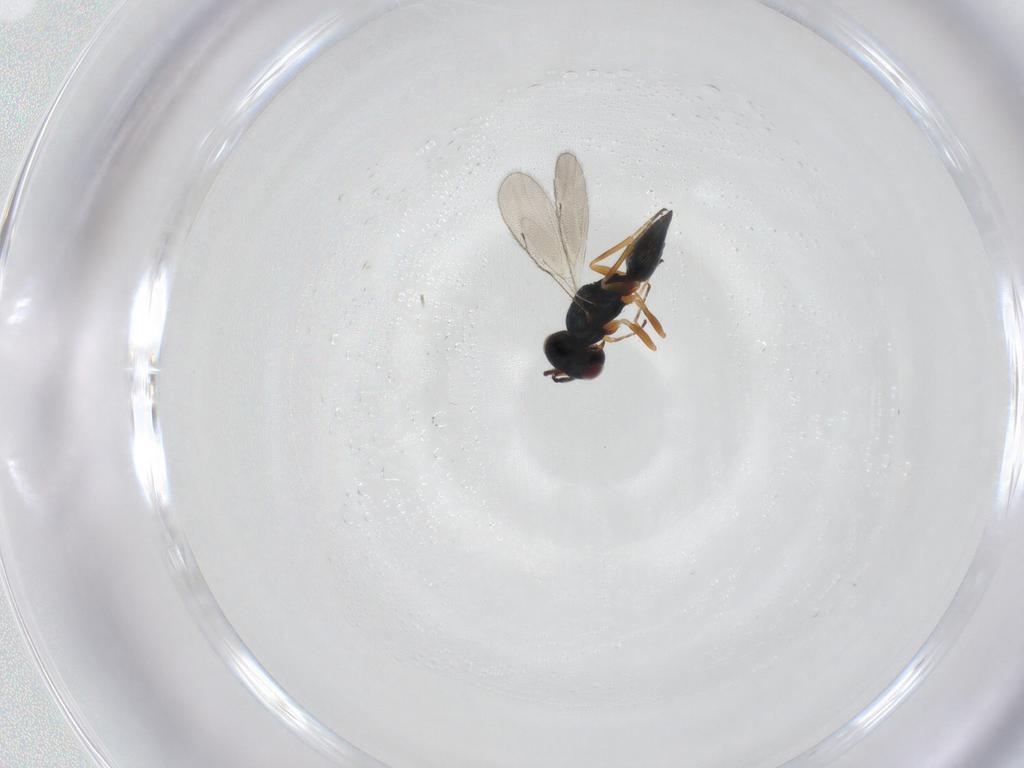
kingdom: Animalia
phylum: Arthropoda
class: Insecta
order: Hymenoptera
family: Pteromalidae
